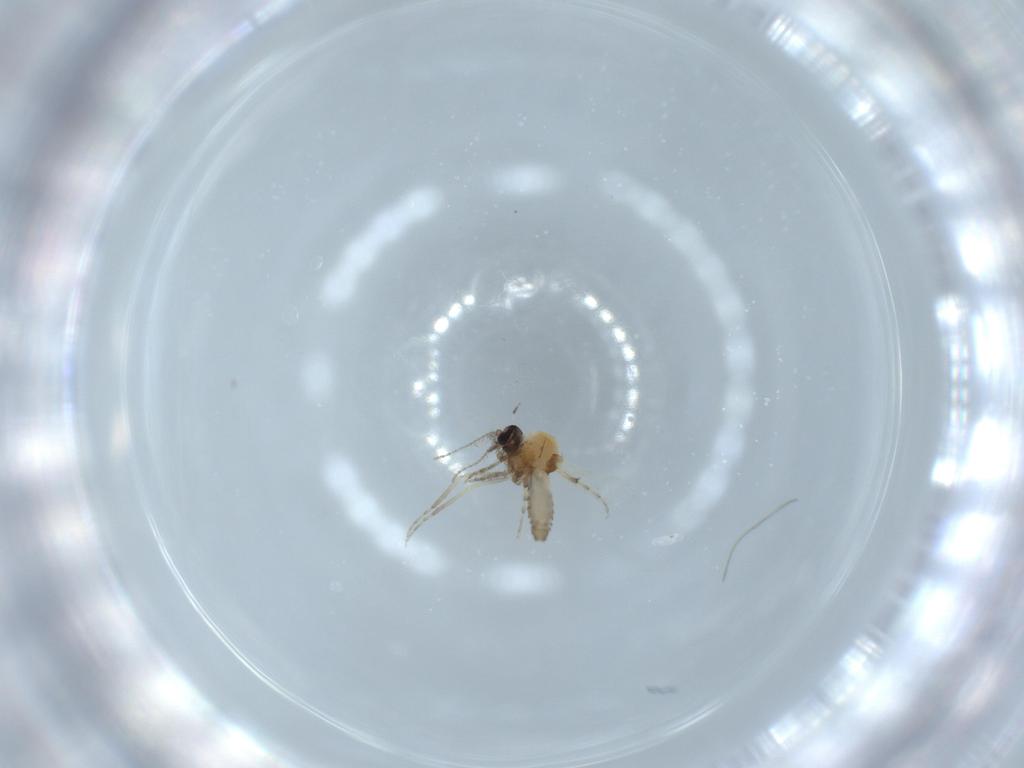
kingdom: Animalia
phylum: Arthropoda
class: Insecta
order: Diptera
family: Ceratopogonidae
